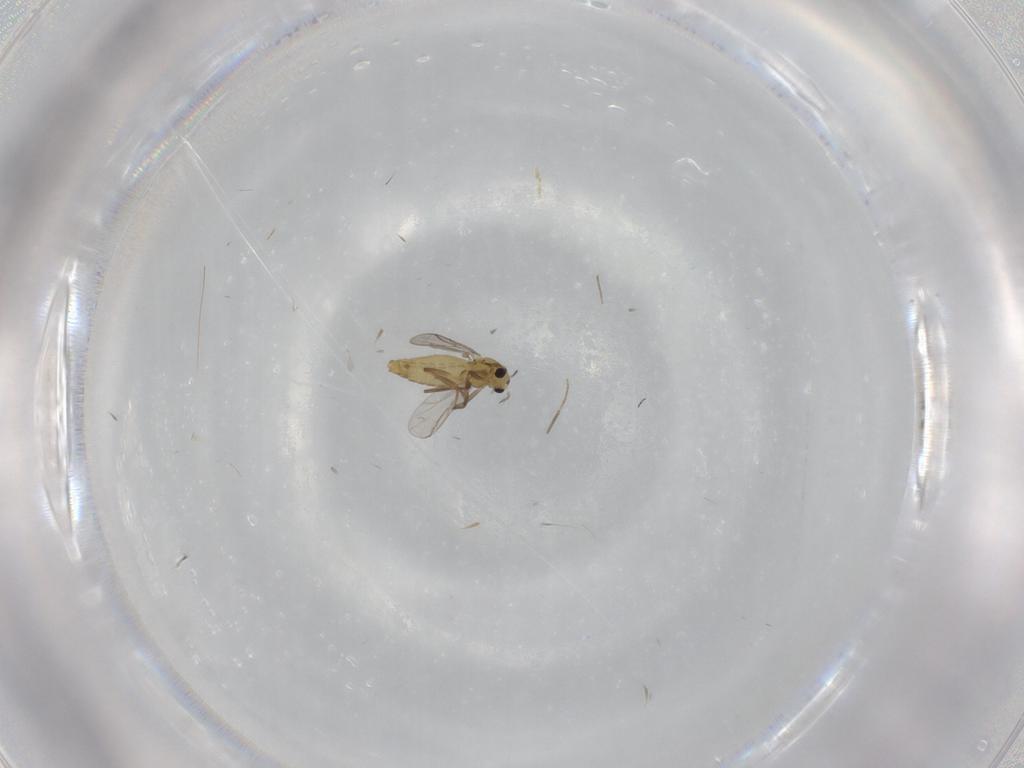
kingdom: Animalia
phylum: Arthropoda
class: Insecta
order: Diptera
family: Chironomidae
